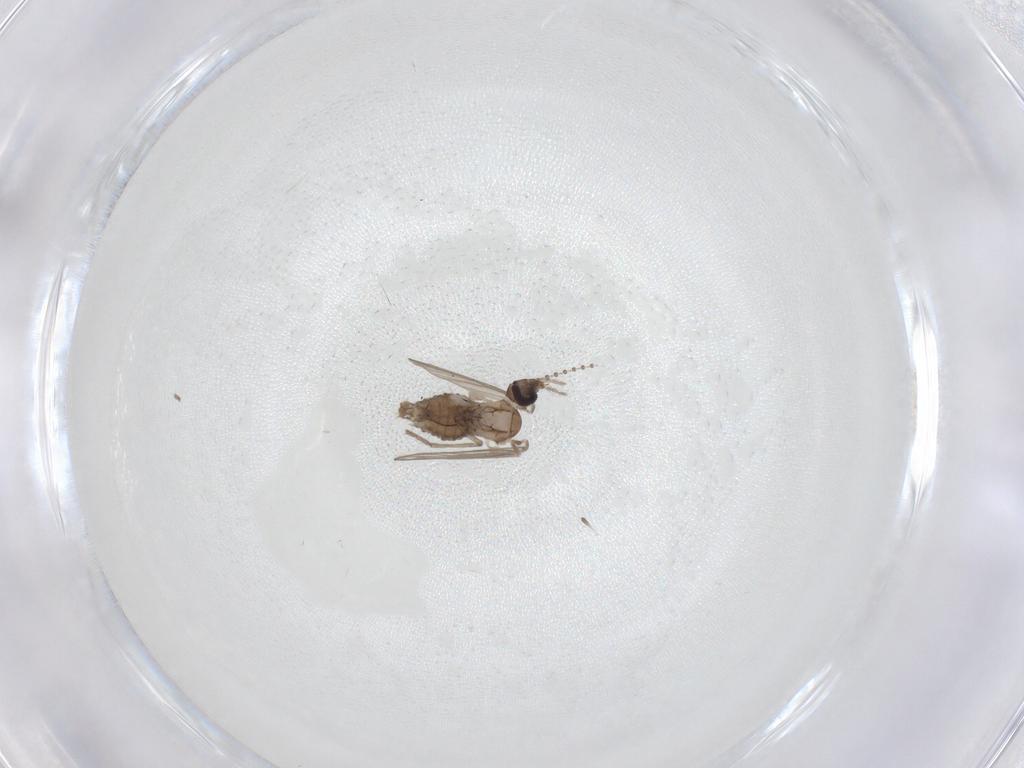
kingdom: Animalia
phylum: Arthropoda
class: Insecta
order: Diptera
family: Psychodidae
